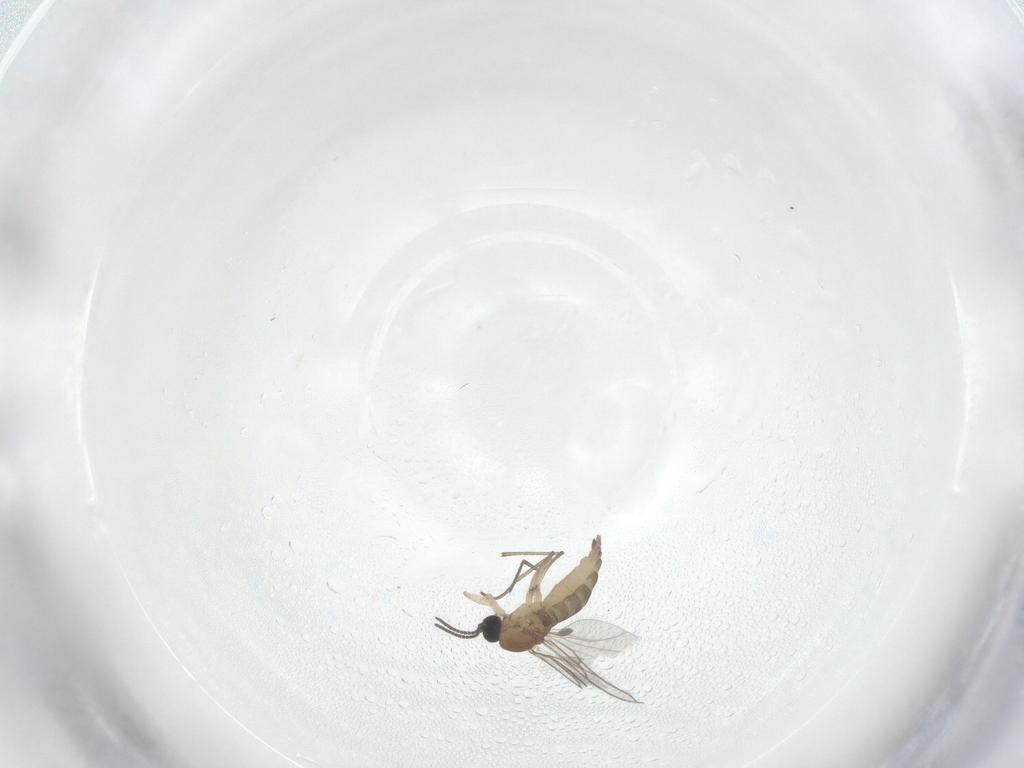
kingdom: Animalia
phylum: Arthropoda
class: Insecta
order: Diptera
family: Sciaridae
